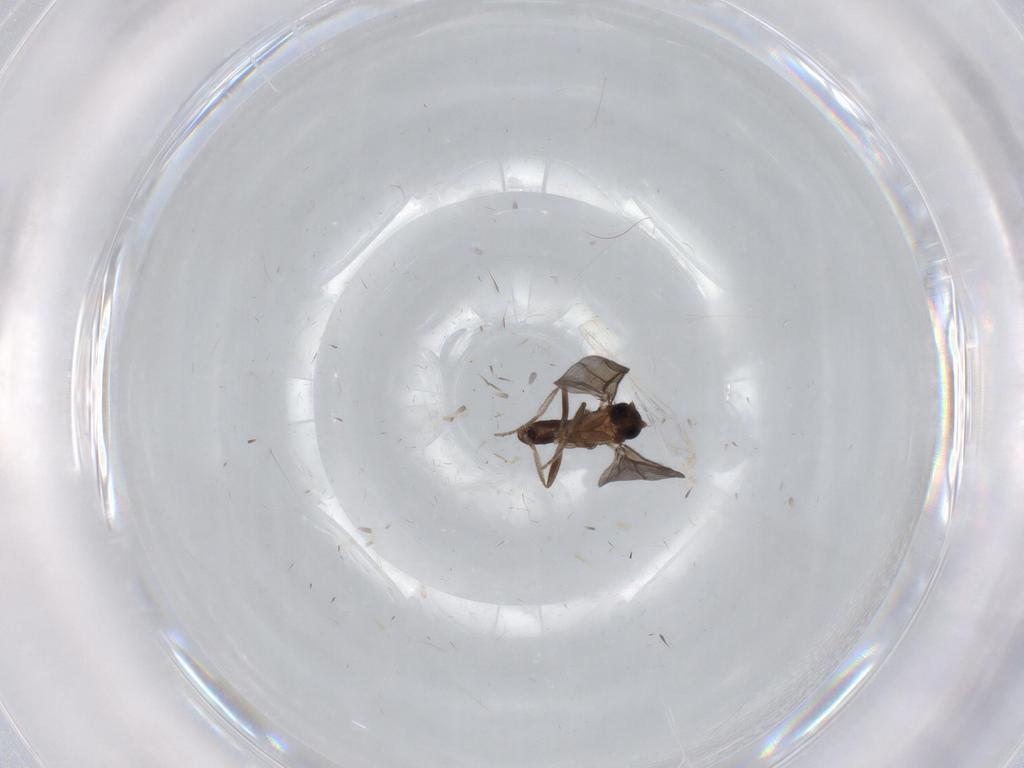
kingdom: Animalia
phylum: Arthropoda
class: Insecta
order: Diptera
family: Phoridae
